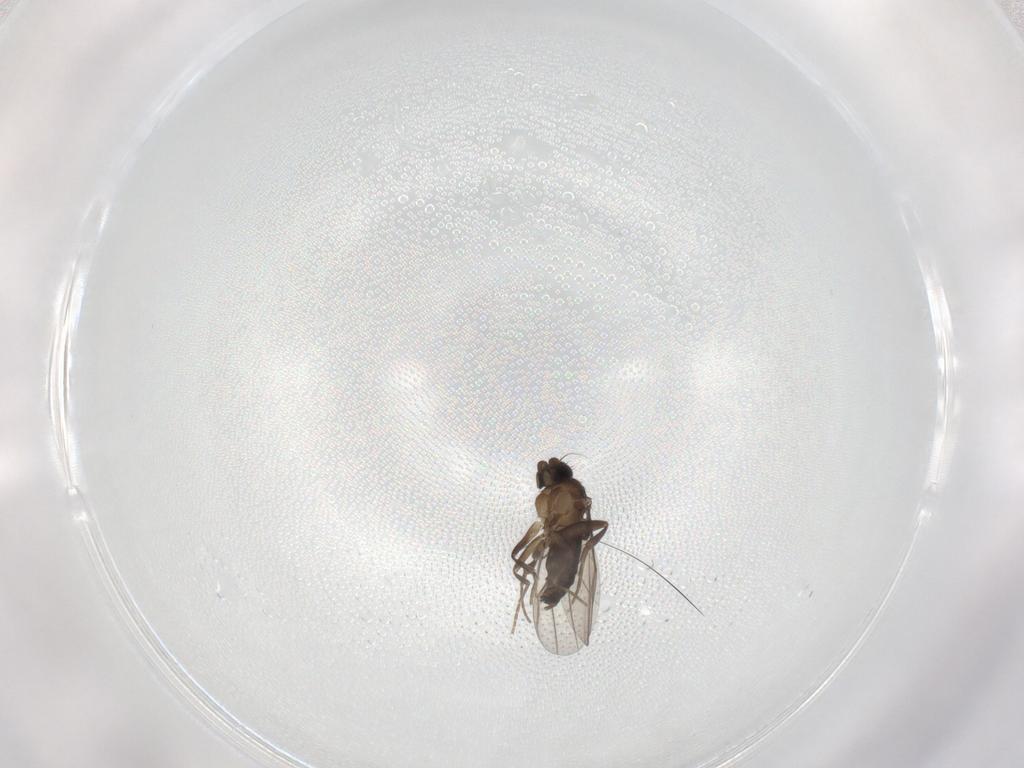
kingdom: Animalia
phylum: Arthropoda
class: Insecta
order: Diptera
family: Phoridae
